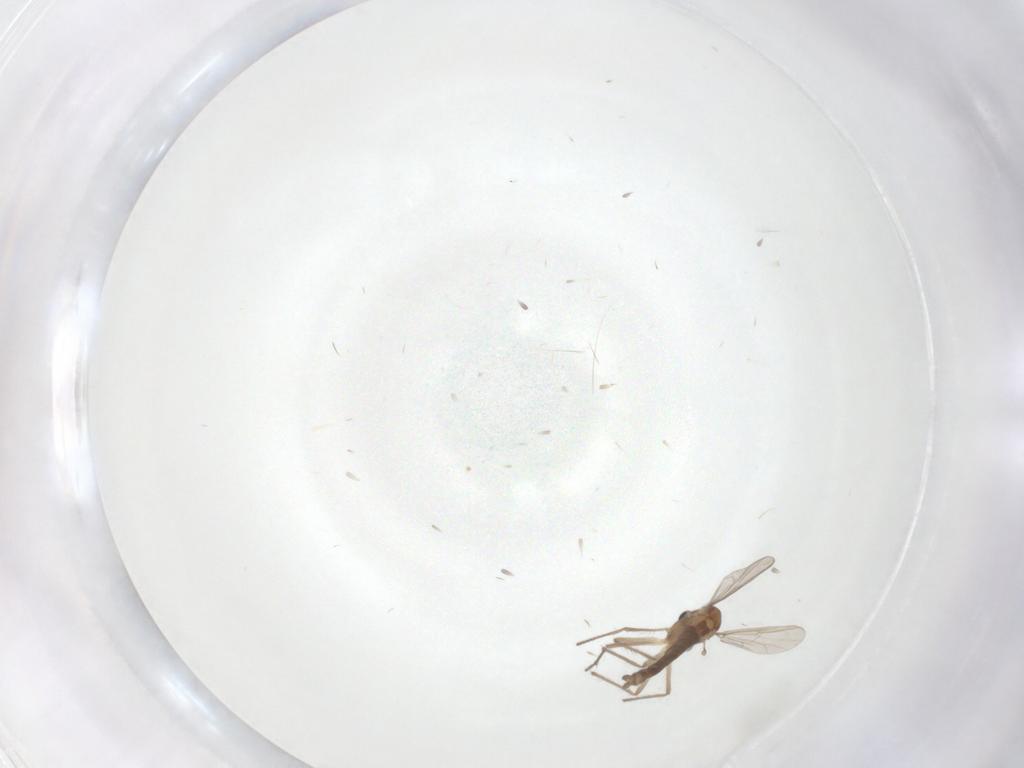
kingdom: Animalia
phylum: Arthropoda
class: Insecta
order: Diptera
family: Chironomidae
